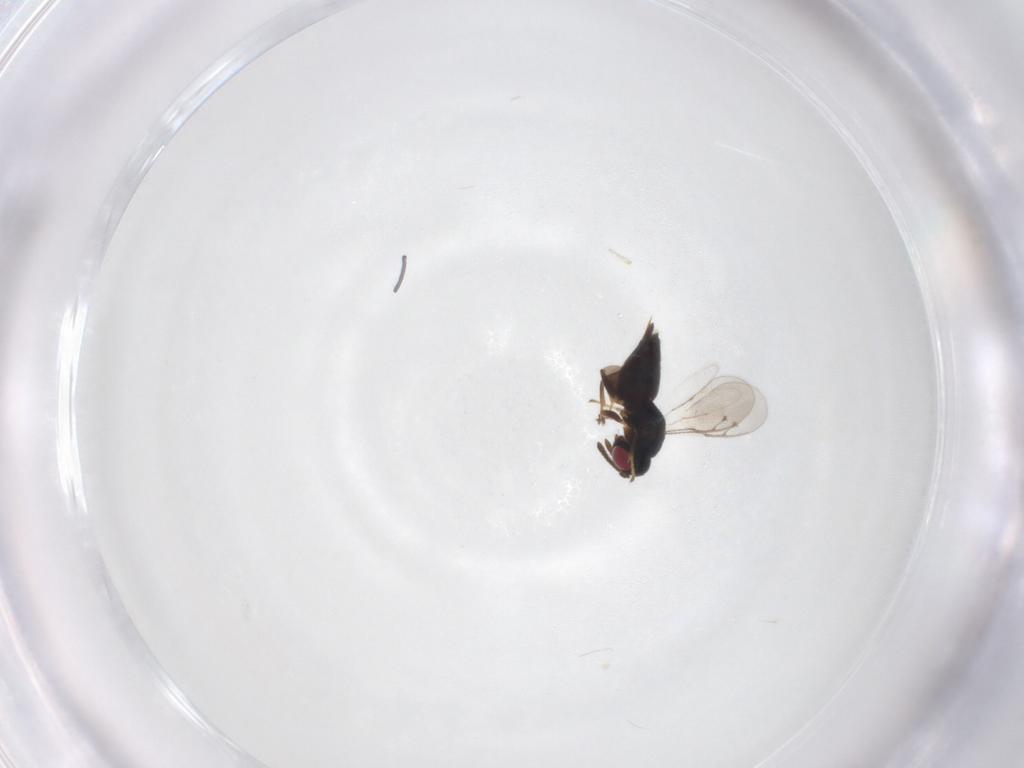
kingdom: Animalia
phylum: Arthropoda
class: Insecta
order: Hymenoptera
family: Pteromalidae
